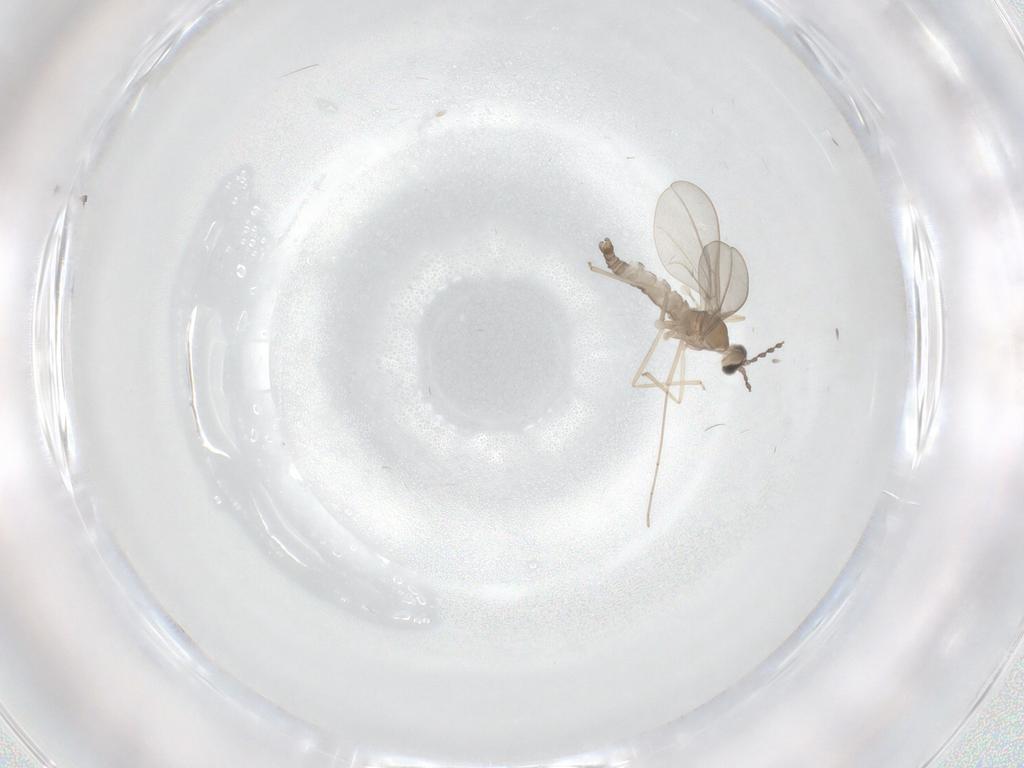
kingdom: Animalia
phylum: Arthropoda
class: Insecta
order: Diptera
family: Cecidomyiidae
